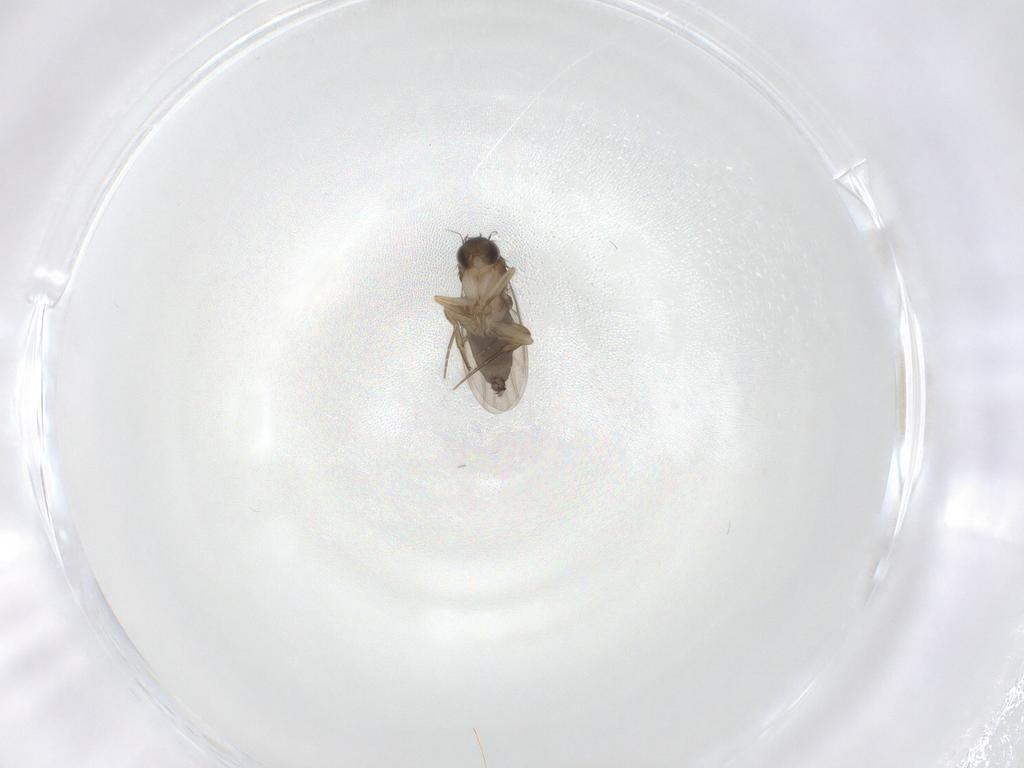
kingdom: Animalia
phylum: Arthropoda
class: Insecta
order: Diptera
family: Phoridae
